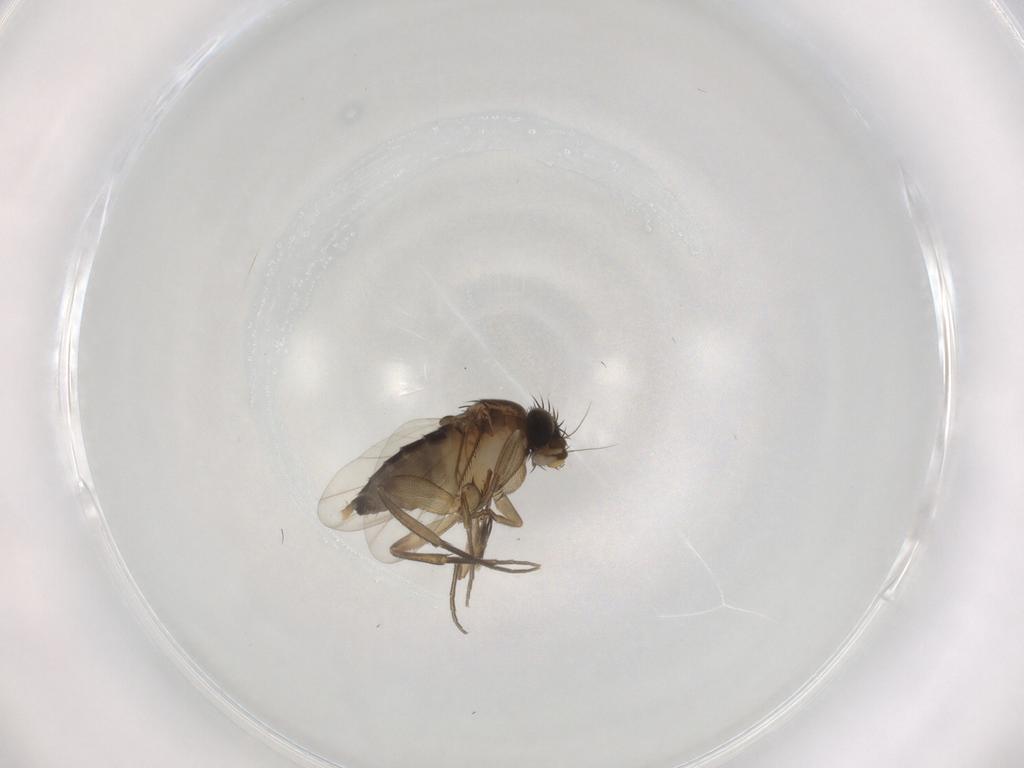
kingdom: Animalia
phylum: Arthropoda
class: Insecta
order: Diptera
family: Phoridae
